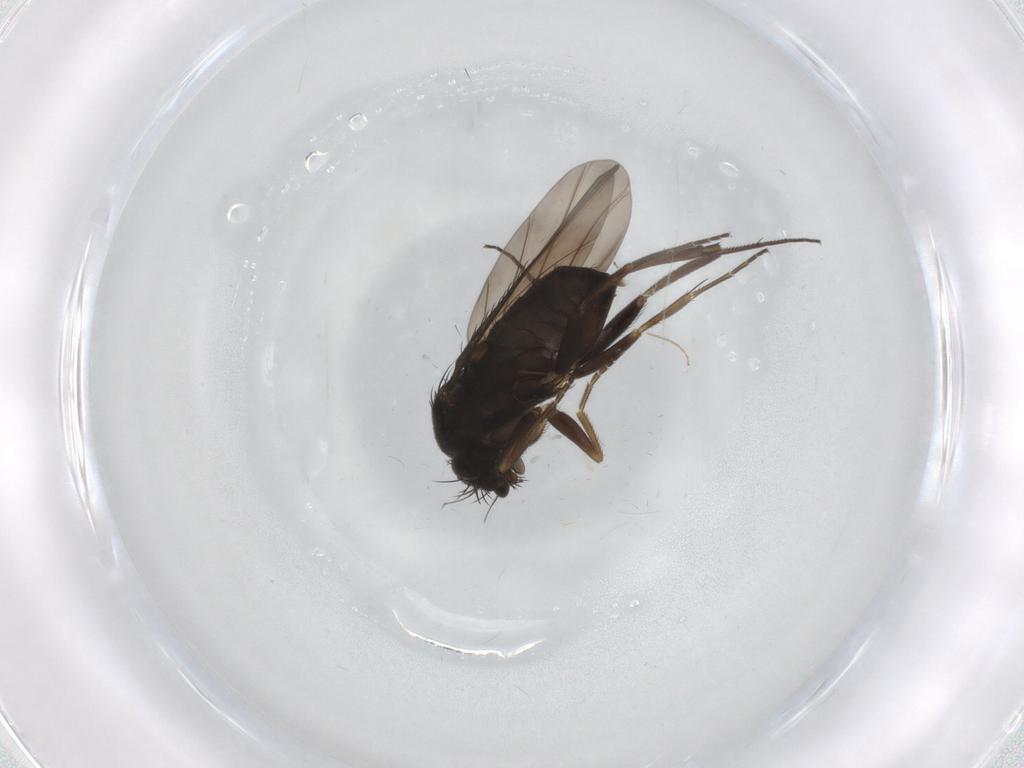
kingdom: Animalia
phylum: Arthropoda
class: Insecta
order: Diptera
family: Phoridae
